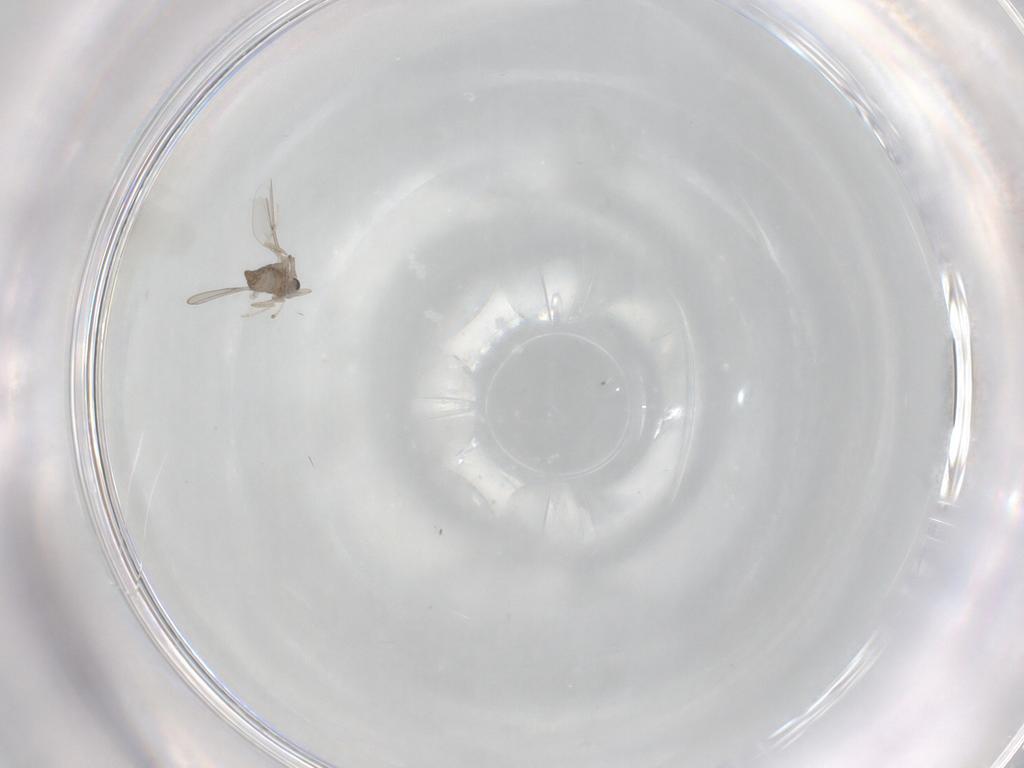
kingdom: Animalia
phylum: Arthropoda
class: Insecta
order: Diptera
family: Cecidomyiidae
